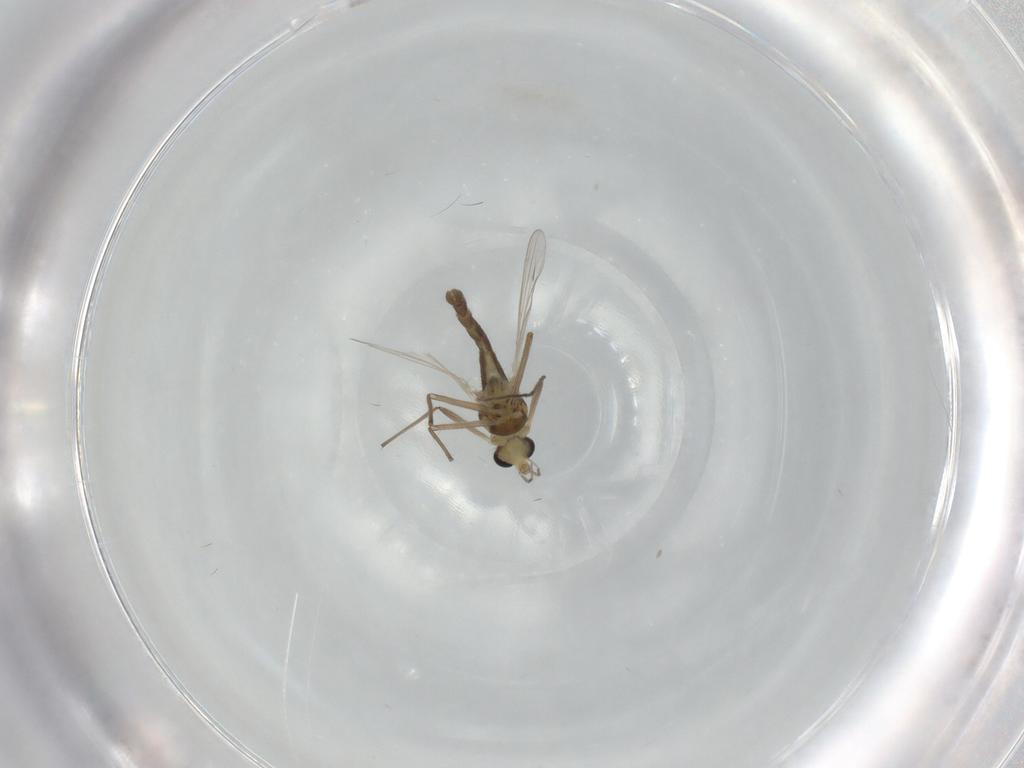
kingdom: Animalia
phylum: Arthropoda
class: Insecta
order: Diptera
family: Chironomidae
